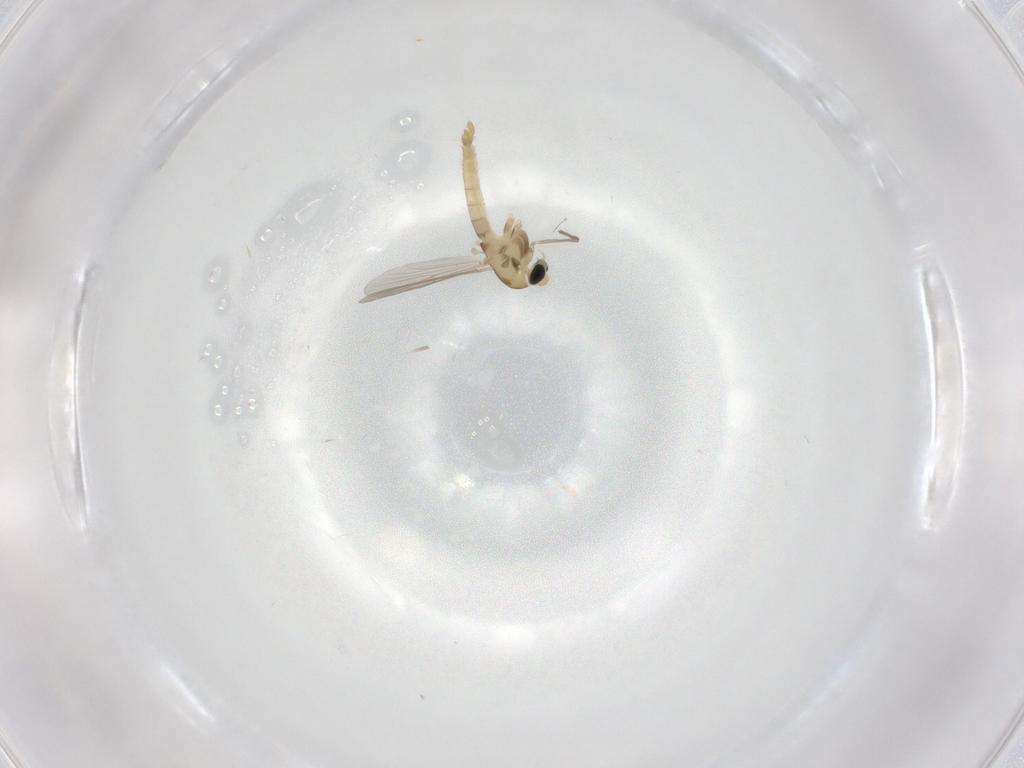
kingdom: Animalia
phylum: Arthropoda
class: Insecta
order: Diptera
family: Chironomidae
